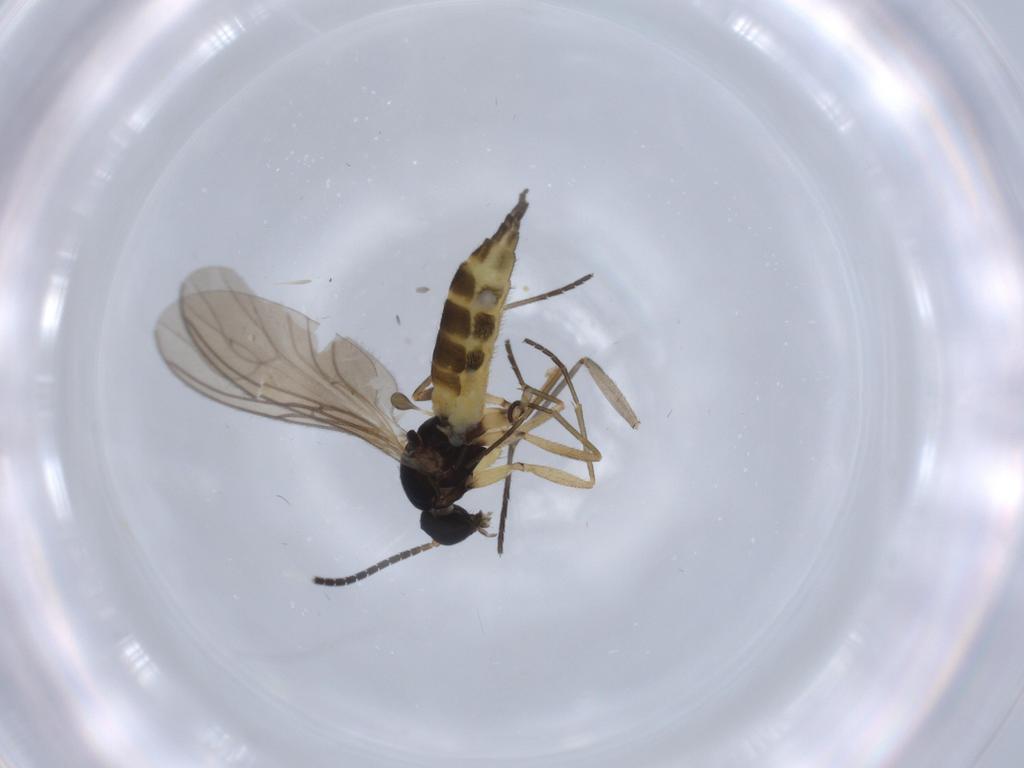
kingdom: Animalia
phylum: Arthropoda
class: Insecta
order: Diptera
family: Sciaridae
